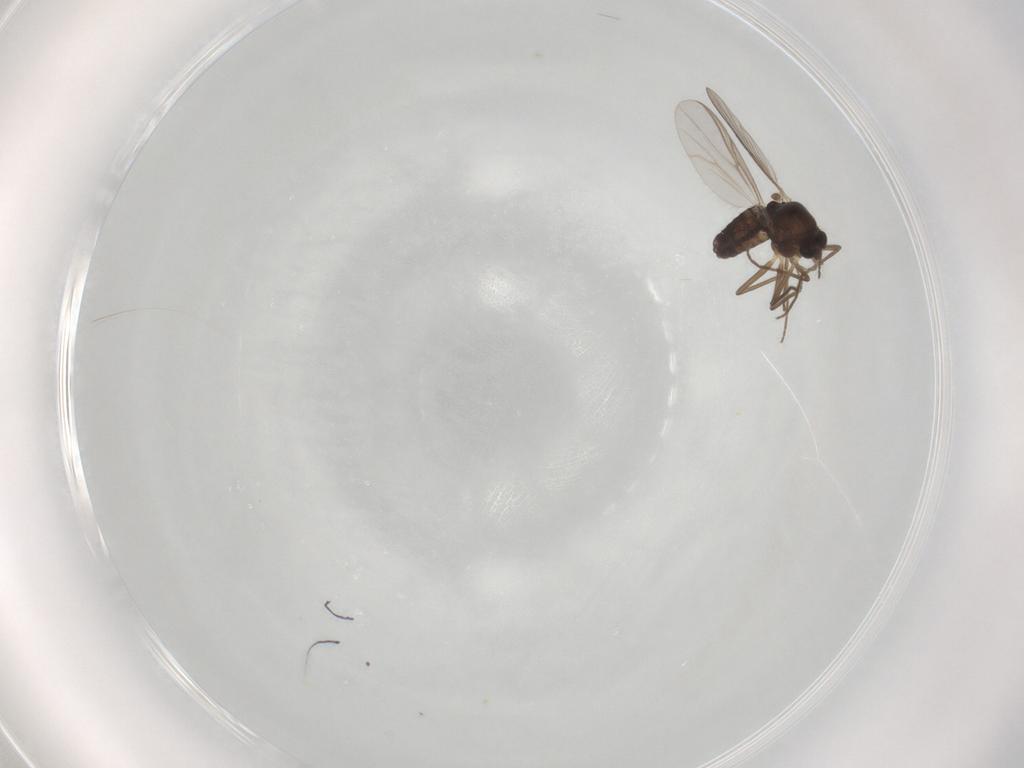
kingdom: Animalia
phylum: Arthropoda
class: Insecta
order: Diptera
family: Chironomidae
